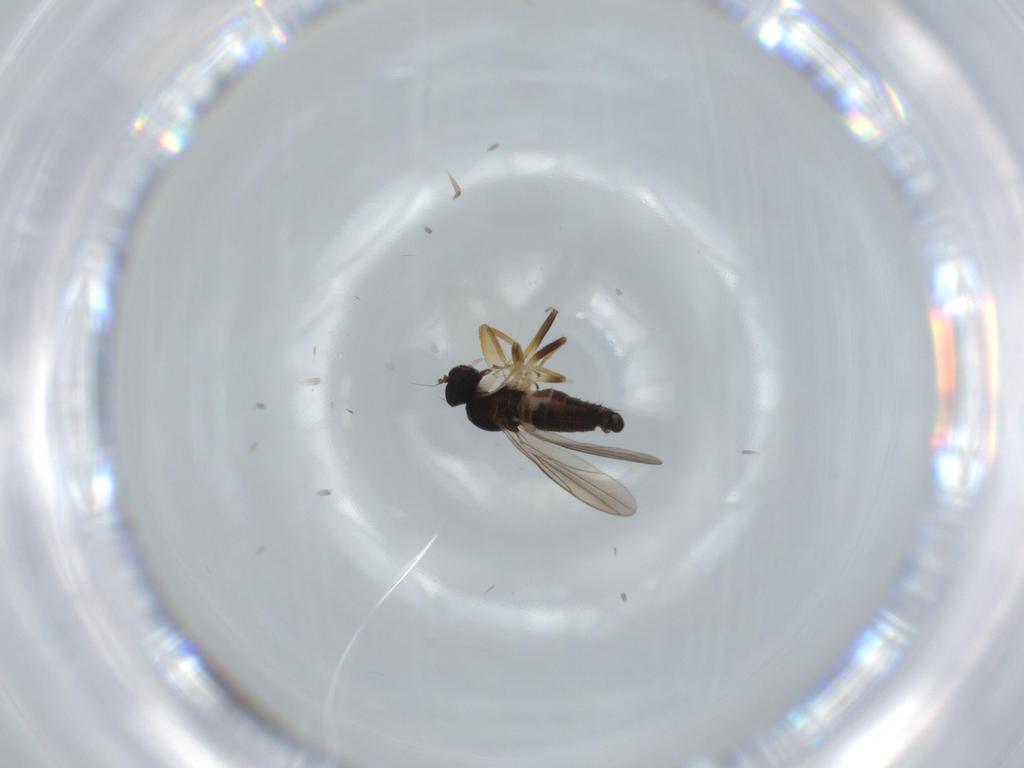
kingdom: Animalia
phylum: Arthropoda
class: Insecta
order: Diptera
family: Hybotidae
